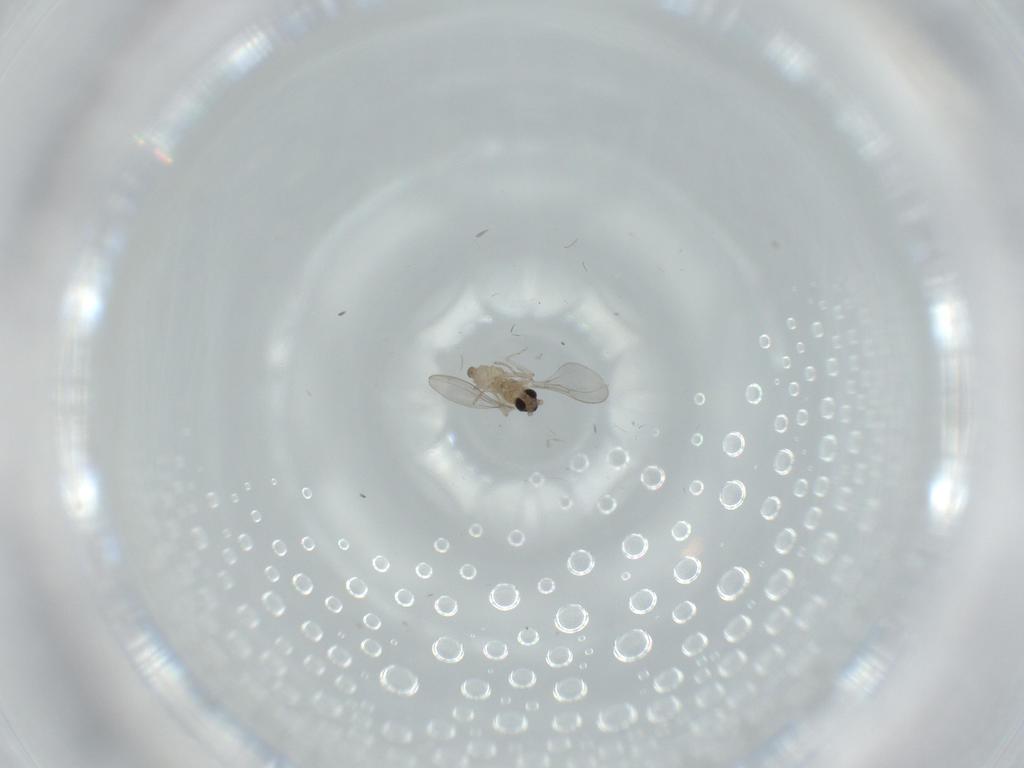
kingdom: Animalia
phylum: Arthropoda
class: Insecta
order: Diptera
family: Cecidomyiidae
